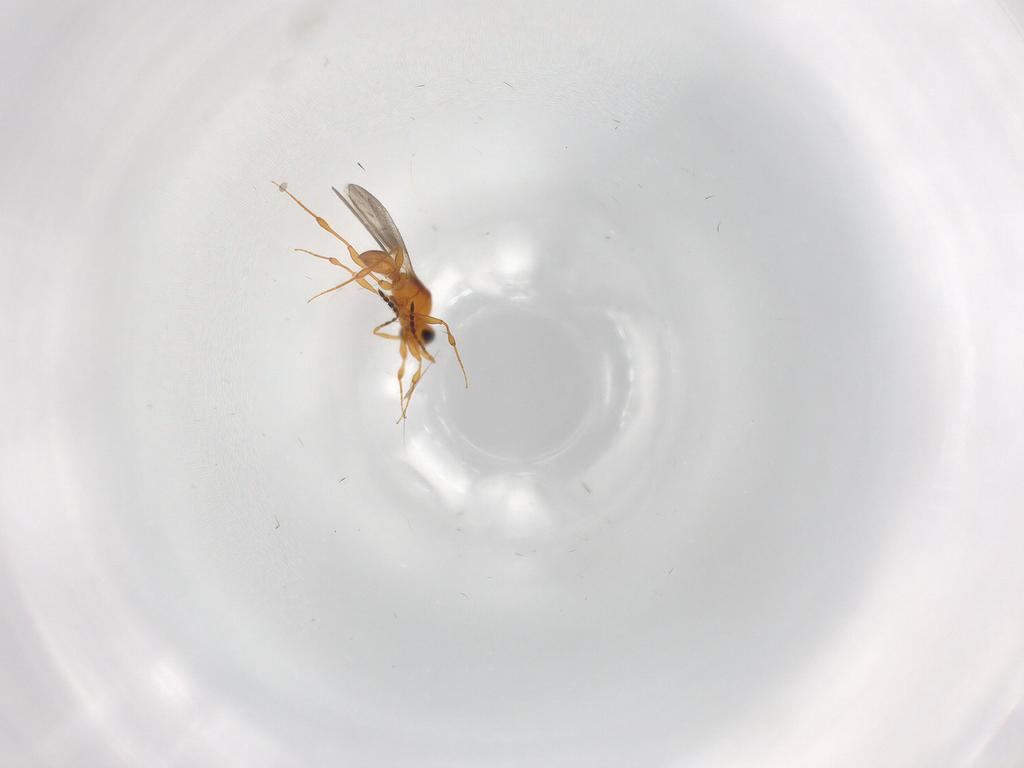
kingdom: Animalia
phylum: Arthropoda
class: Insecta
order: Hymenoptera
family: Platygastridae
